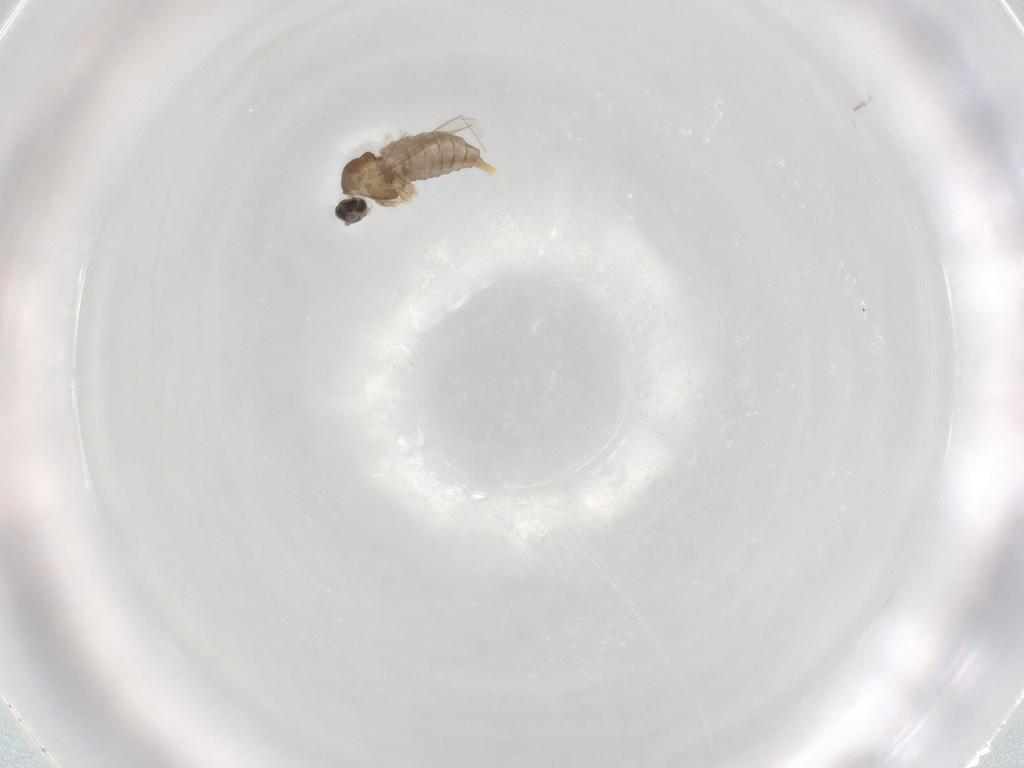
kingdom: Animalia
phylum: Arthropoda
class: Insecta
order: Diptera
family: Cecidomyiidae
